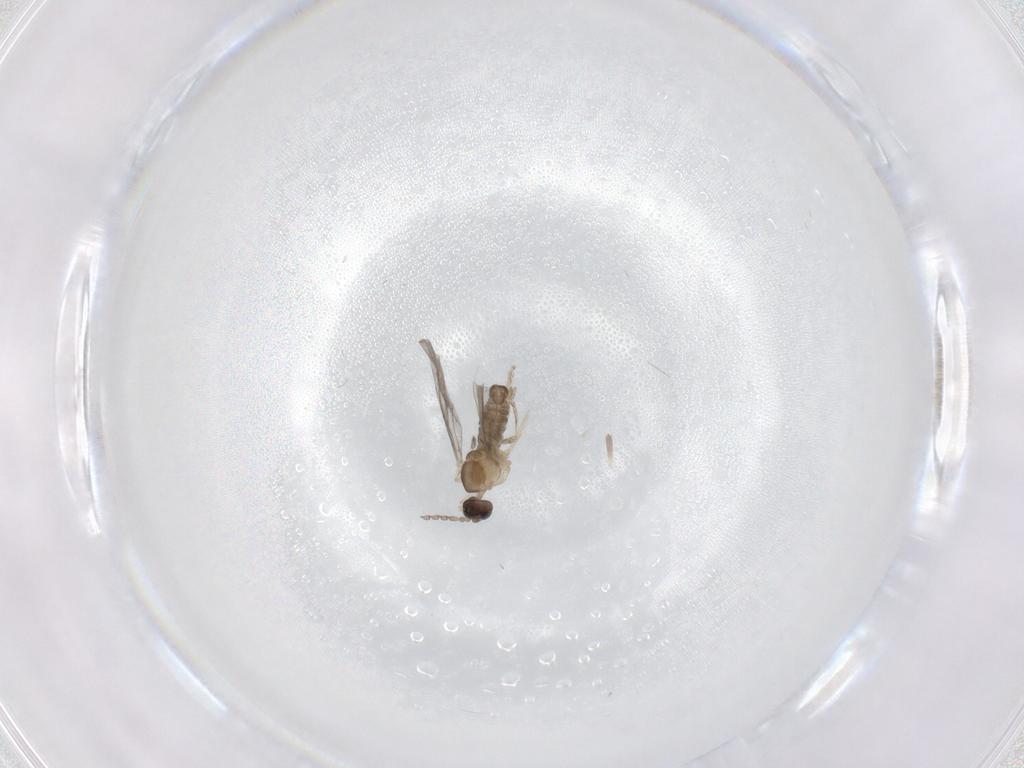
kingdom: Animalia
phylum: Arthropoda
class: Insecta
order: Diptera
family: Cecidomyiidae
